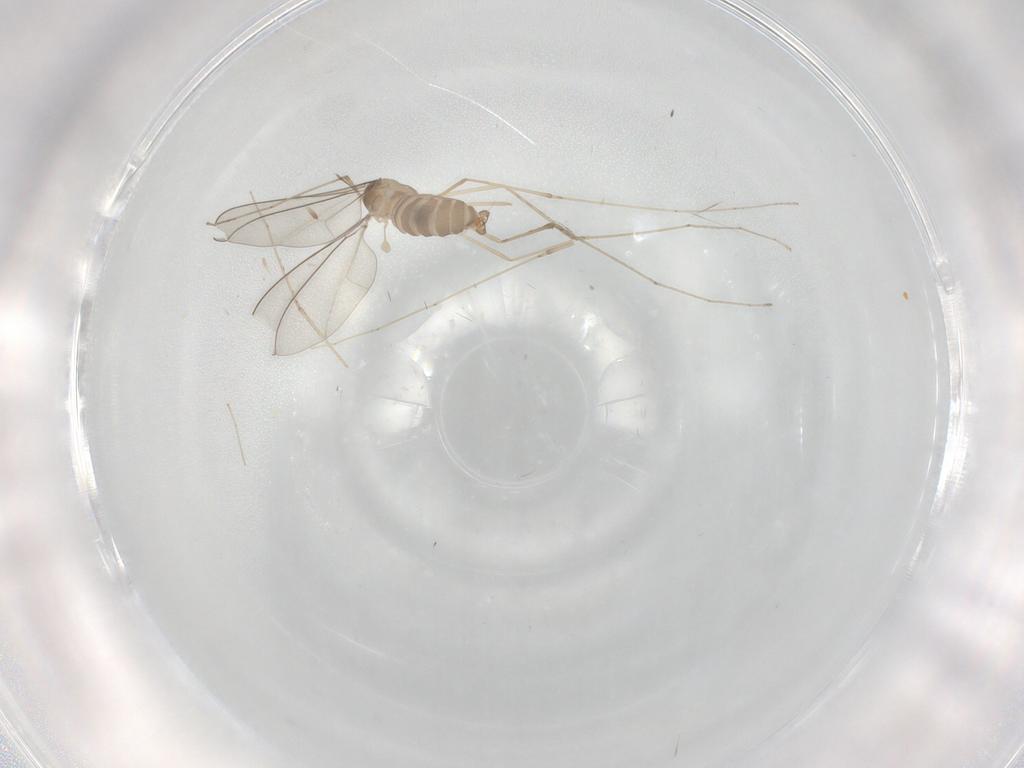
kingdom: Animalia
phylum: Arthropoda
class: Insecta
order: Diptera
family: Cecidomyiidae
